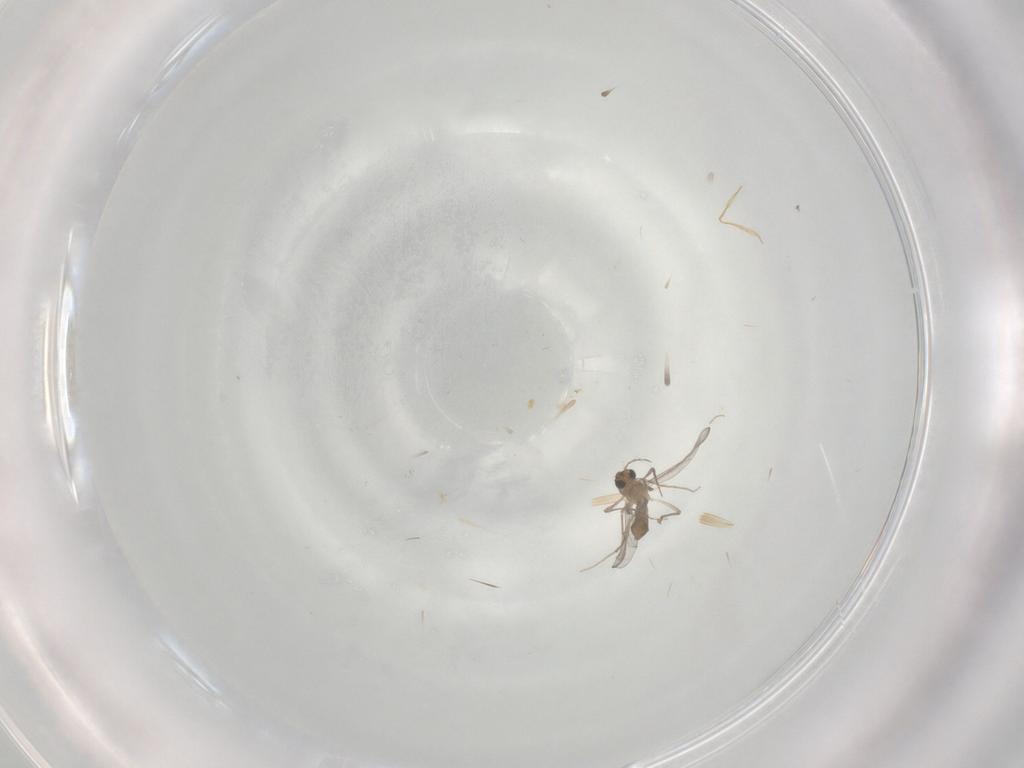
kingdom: Animalia
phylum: Arthropoda
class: Insecta
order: Diptera
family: Chironomidae
